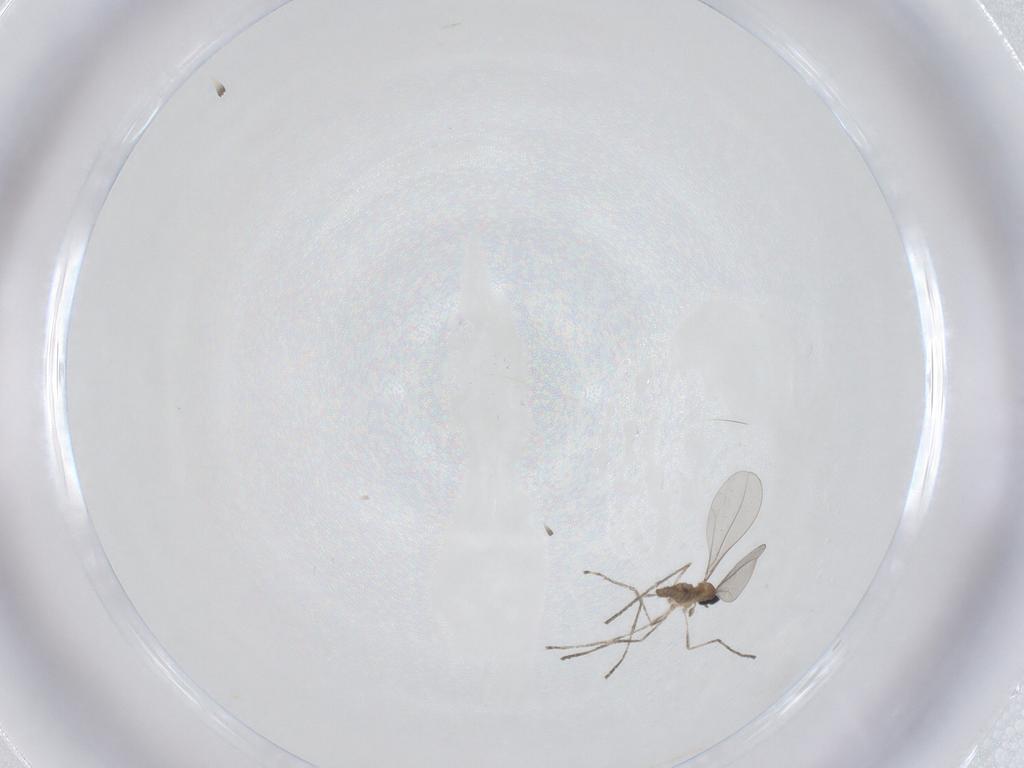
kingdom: Animalia
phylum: Arthropoda
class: Insecta
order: Diptera
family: Cecidomyiidae
